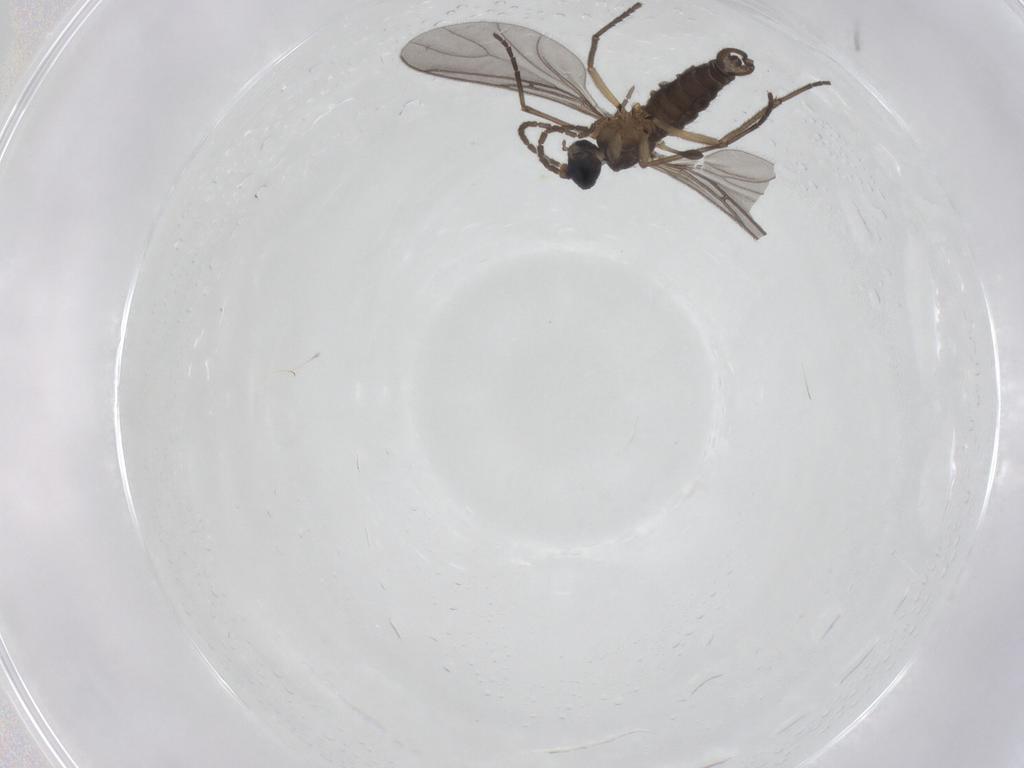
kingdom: Animalia
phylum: Arthropoda
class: Insecta
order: Diptera
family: Sciaridae
